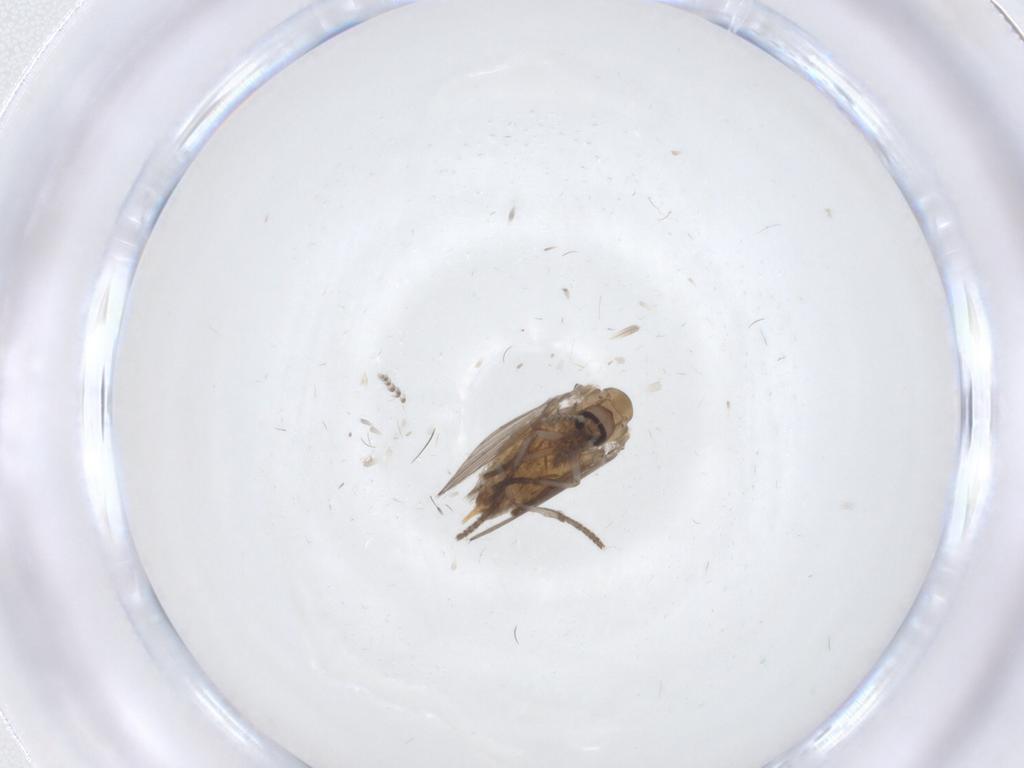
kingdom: Animalia
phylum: Arthropoda
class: Insecta
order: Diptera
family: Psychodidae
